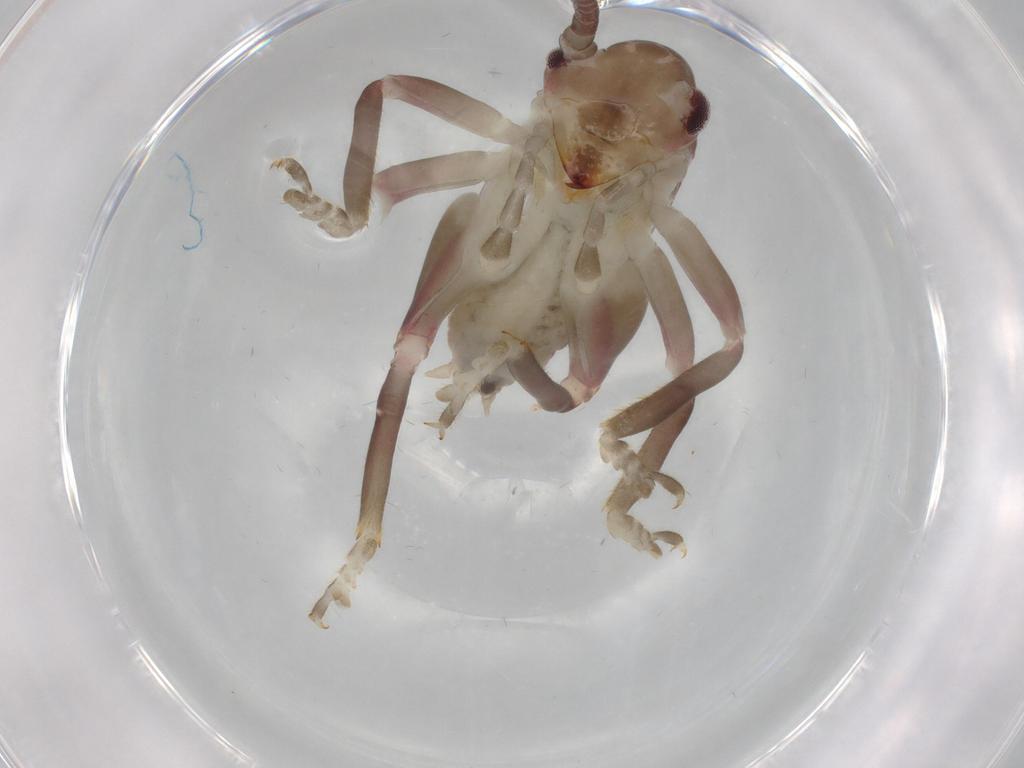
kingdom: Animalia
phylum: Arthropoda
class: Insecta
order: Orthoptera
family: Gryllacrididae
